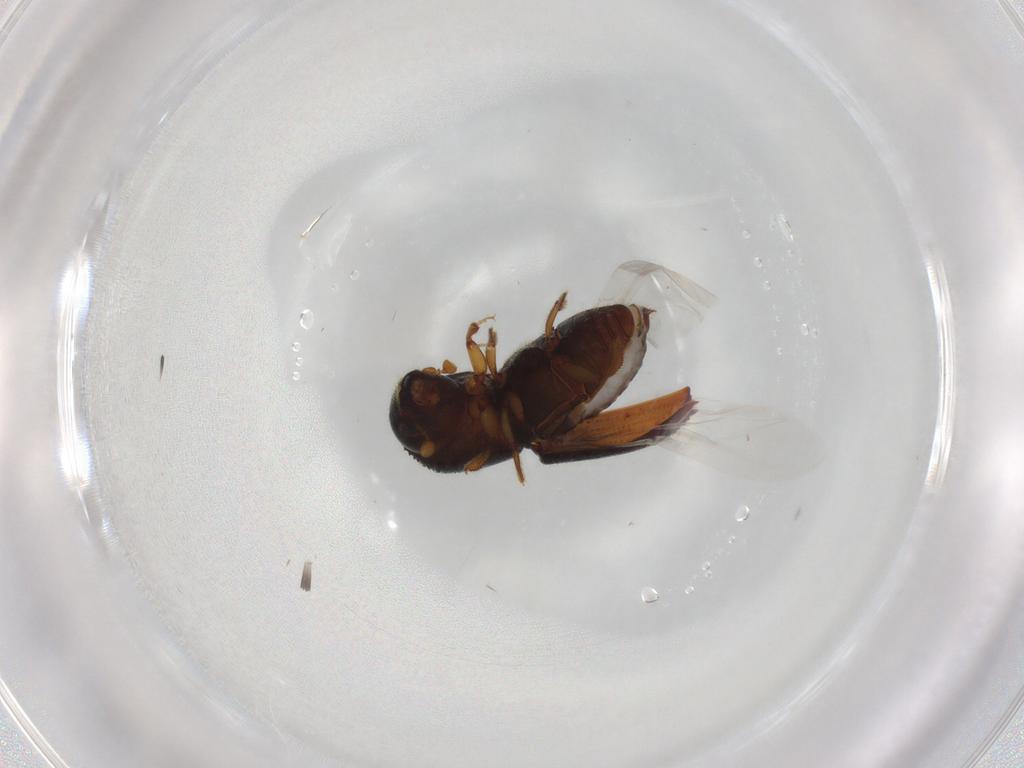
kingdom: Animalia
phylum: Arthropoda
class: Insecta
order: Coleoptera
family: Curculionidae
